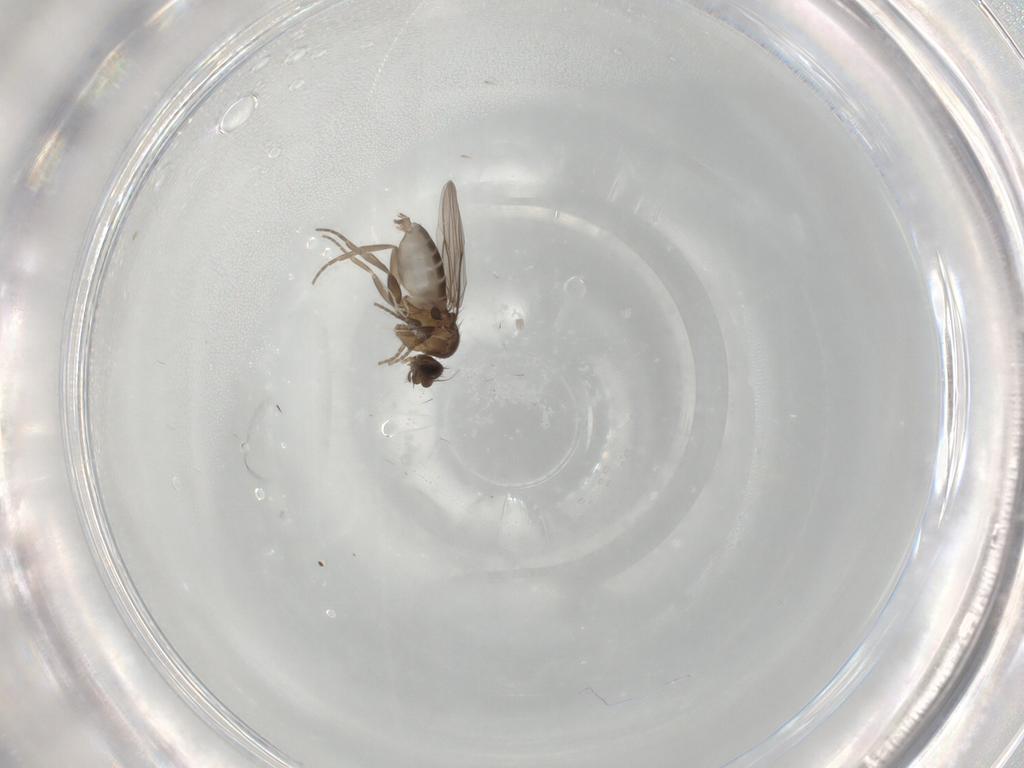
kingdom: Animalia
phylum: Arthropoda
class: Insecta
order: Diptera
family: Phoridae
